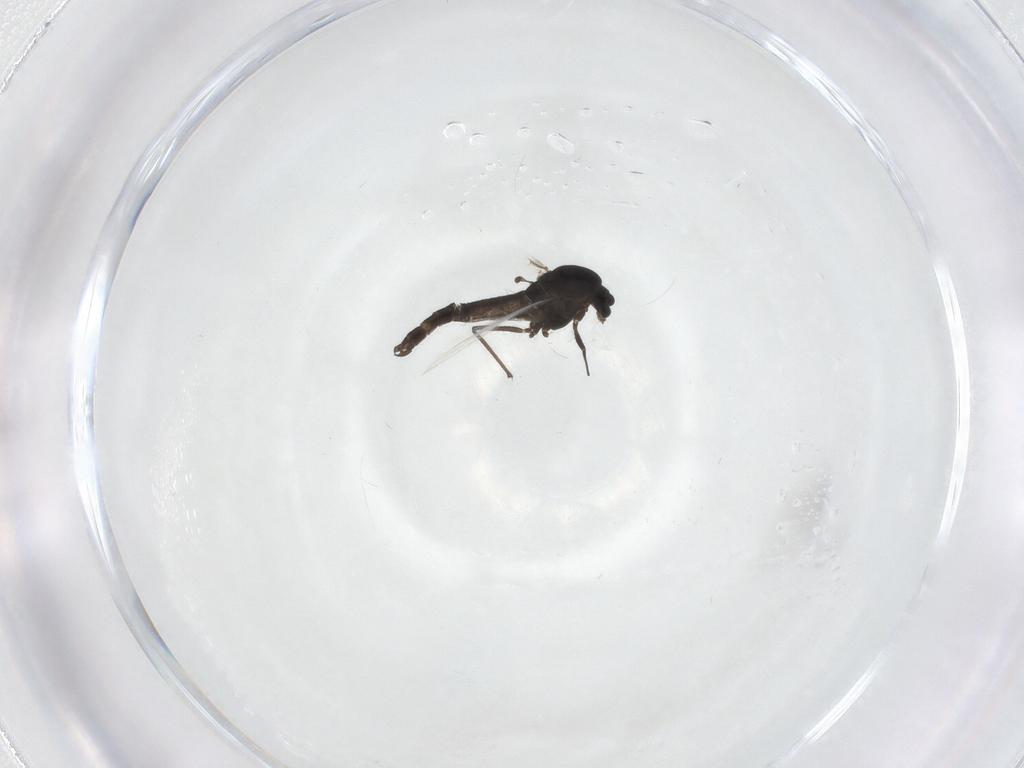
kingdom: Animalia
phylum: Arthropoda
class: Insecta
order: Diptera
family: Chironomidae
